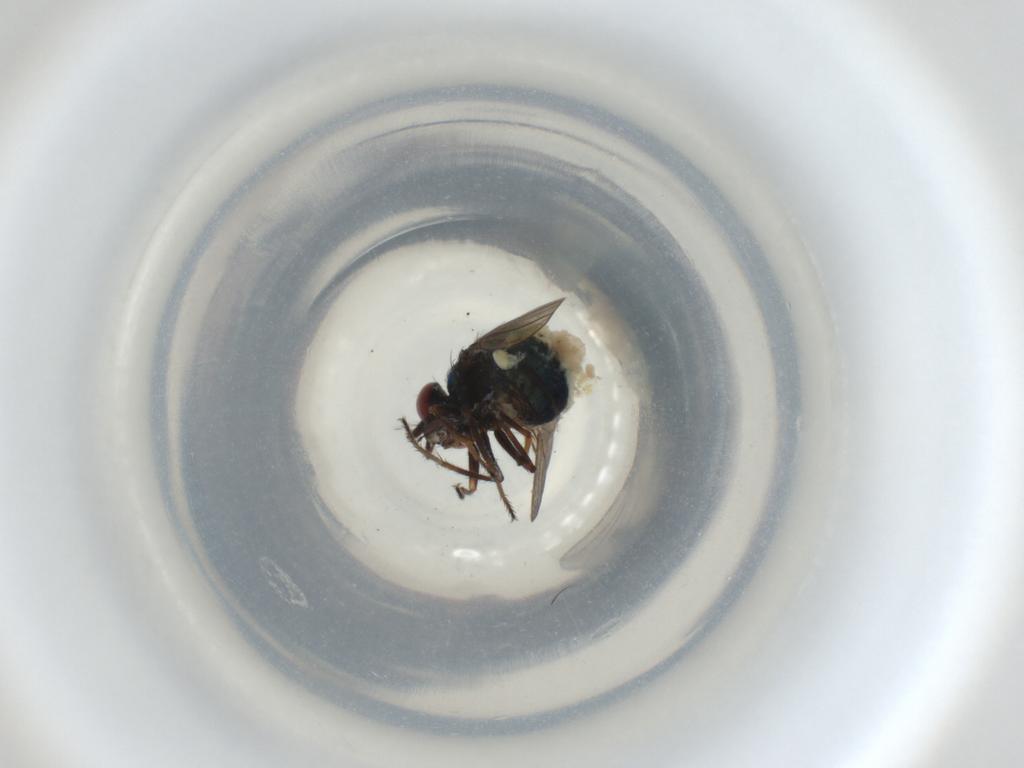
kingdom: Animalia
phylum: Arthropoda
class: Insecta
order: Diptera
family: Ephydridae
